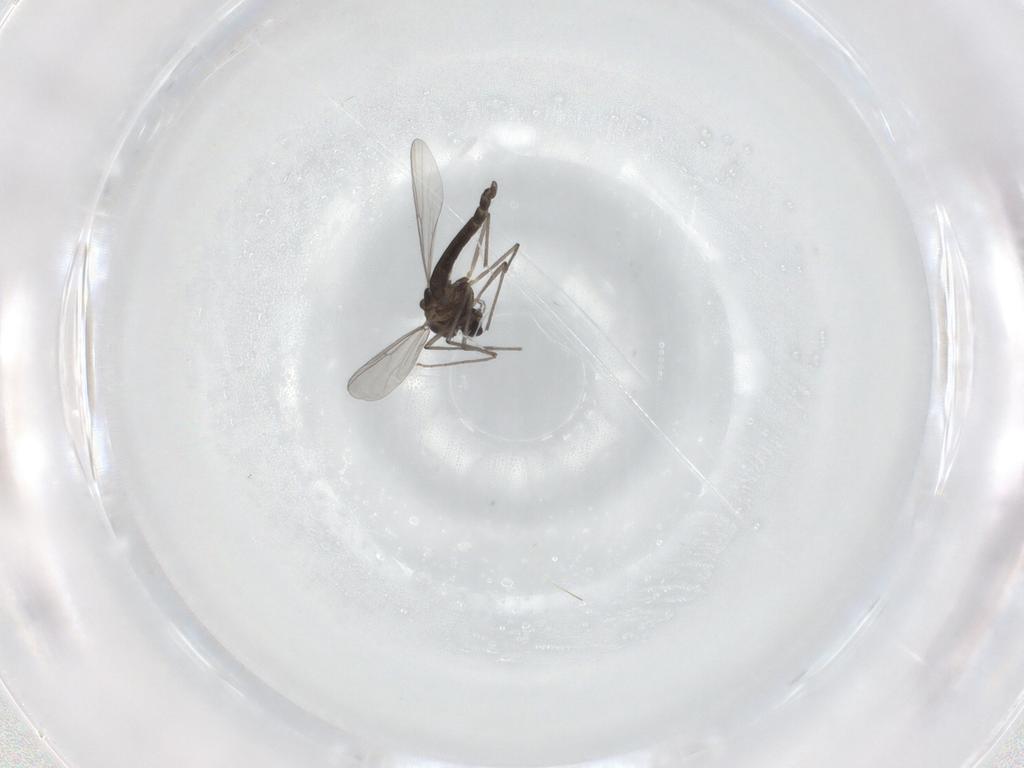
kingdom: Animalia
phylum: Arthropoda
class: Insecta
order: Diptera
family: Chironomidae
